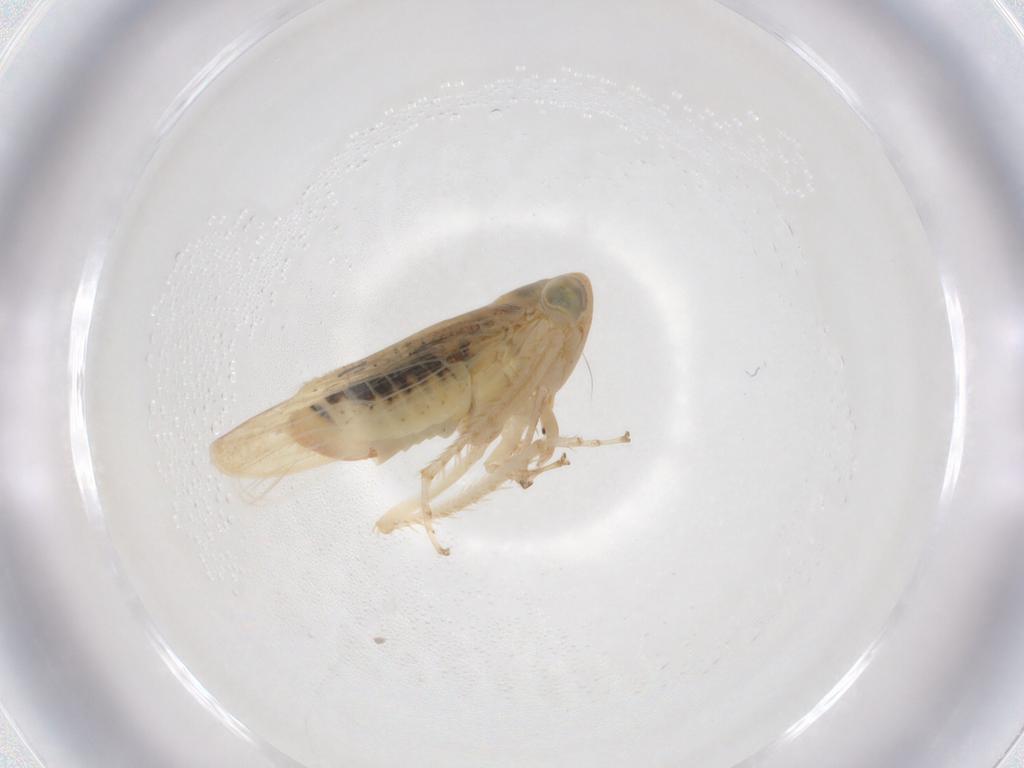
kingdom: Animalia
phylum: Arthropoda
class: Insecta
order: Hemiptera
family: Cicadellidae
